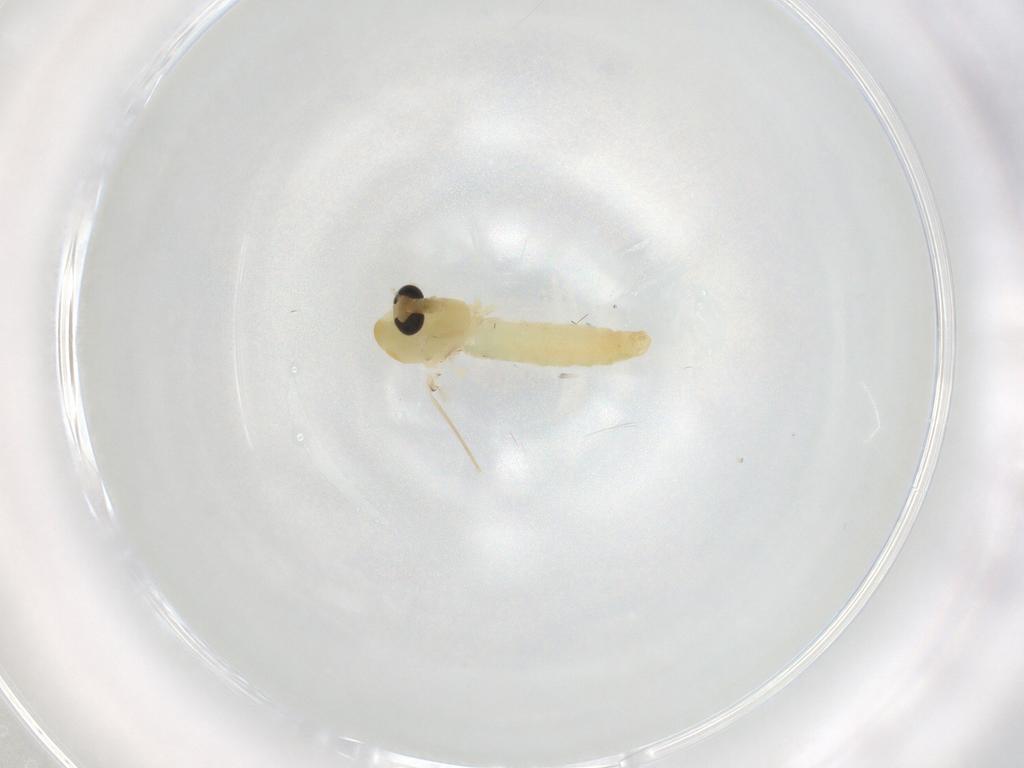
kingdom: Animalia
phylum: Arthropoda
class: Insecta
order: Diptera
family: Chironomidae
